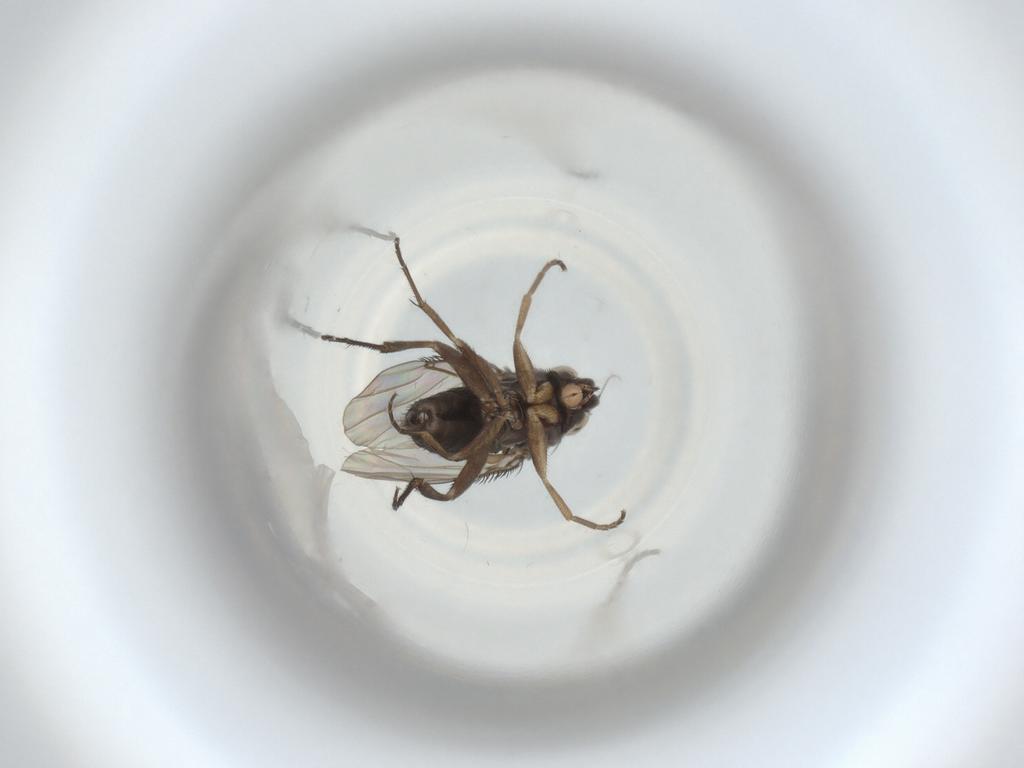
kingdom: Animalia
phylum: Arthropoda
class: Insecta
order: Diptera
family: Phoridae
